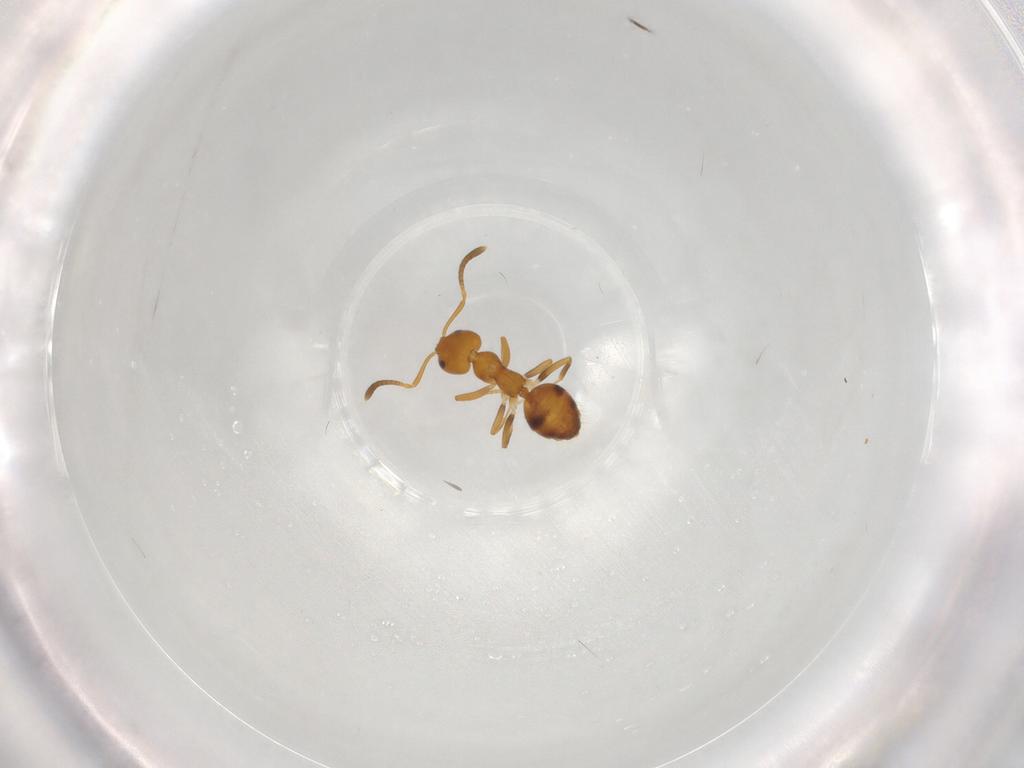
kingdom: Animalia
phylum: Arthropoda
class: Insecta
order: Hymenoptera
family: Formicidae
